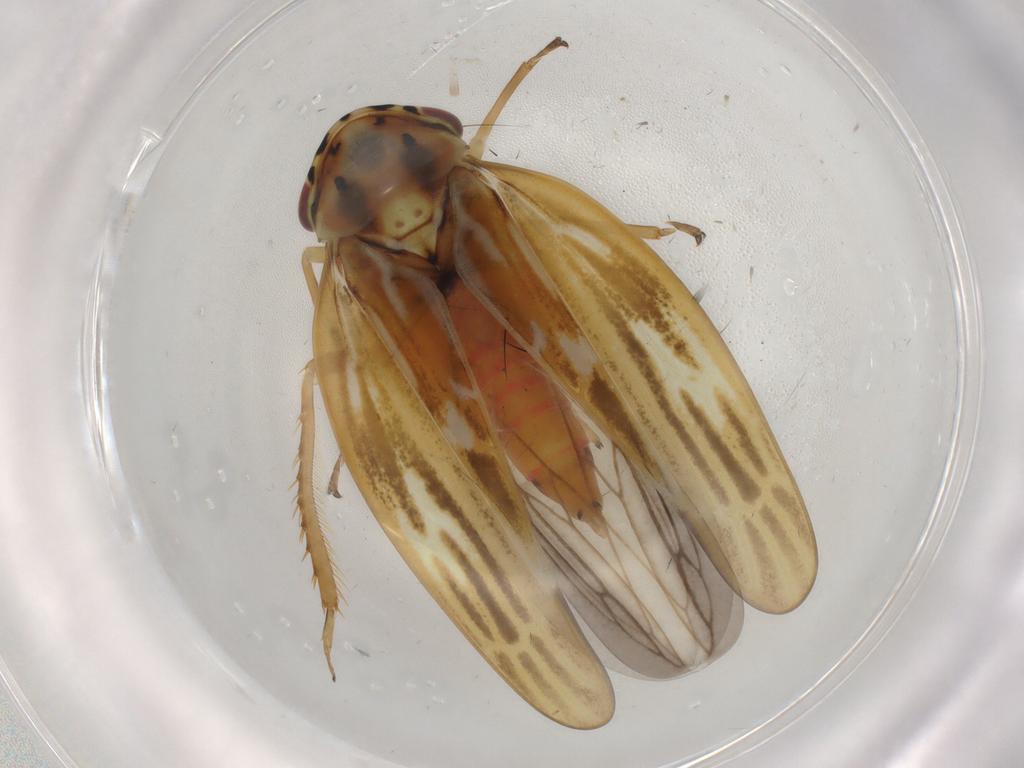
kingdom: Animalia
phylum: Arthropoda
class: Insecta
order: Hemiptera
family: Cicadellidae
